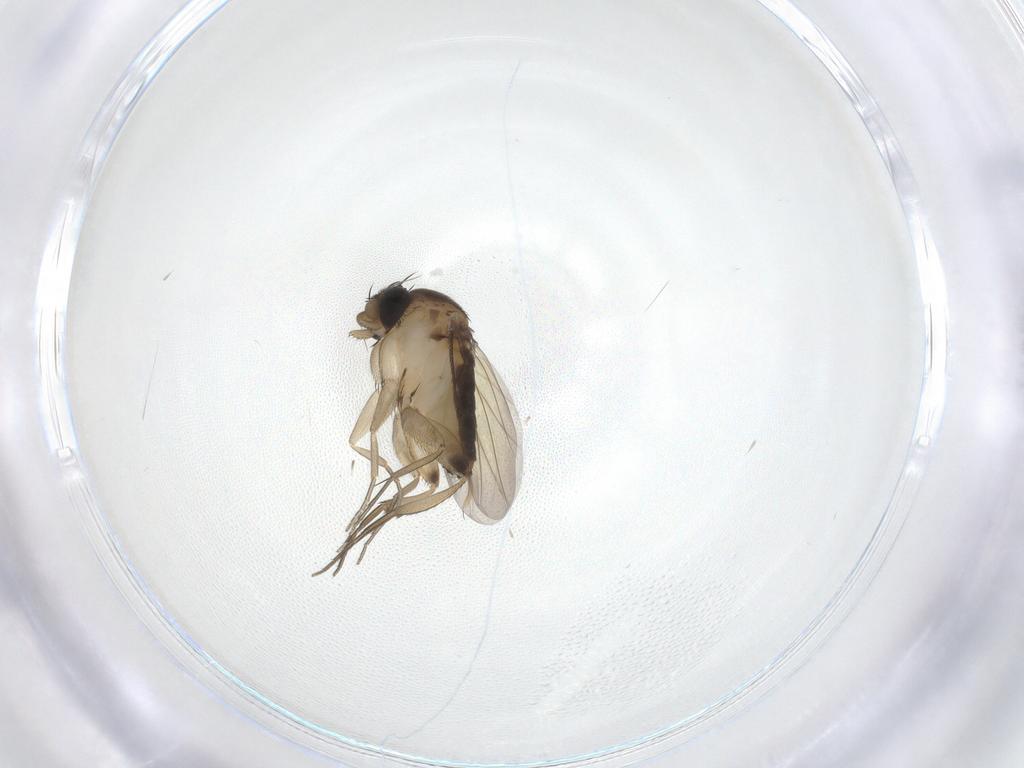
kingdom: Animalia
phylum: Arthropoda
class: Insecta
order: Diptera
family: Phoridae
